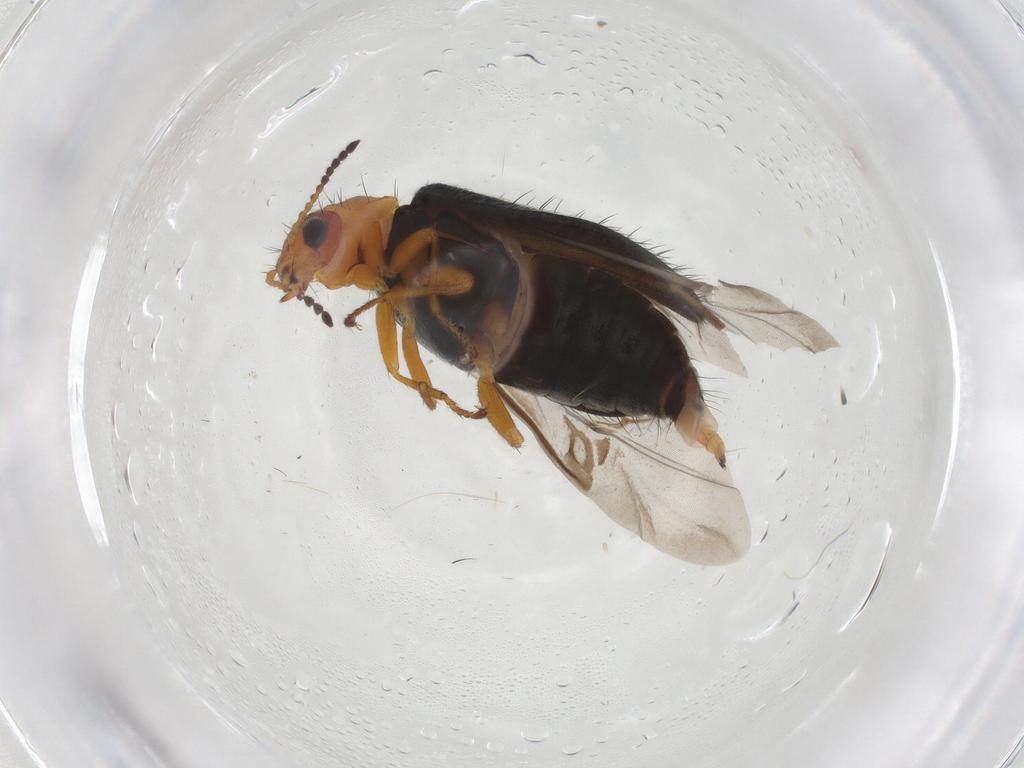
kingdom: Animalia
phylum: Arthropoda
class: Insecta
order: Coleoptera
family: Melyridae
